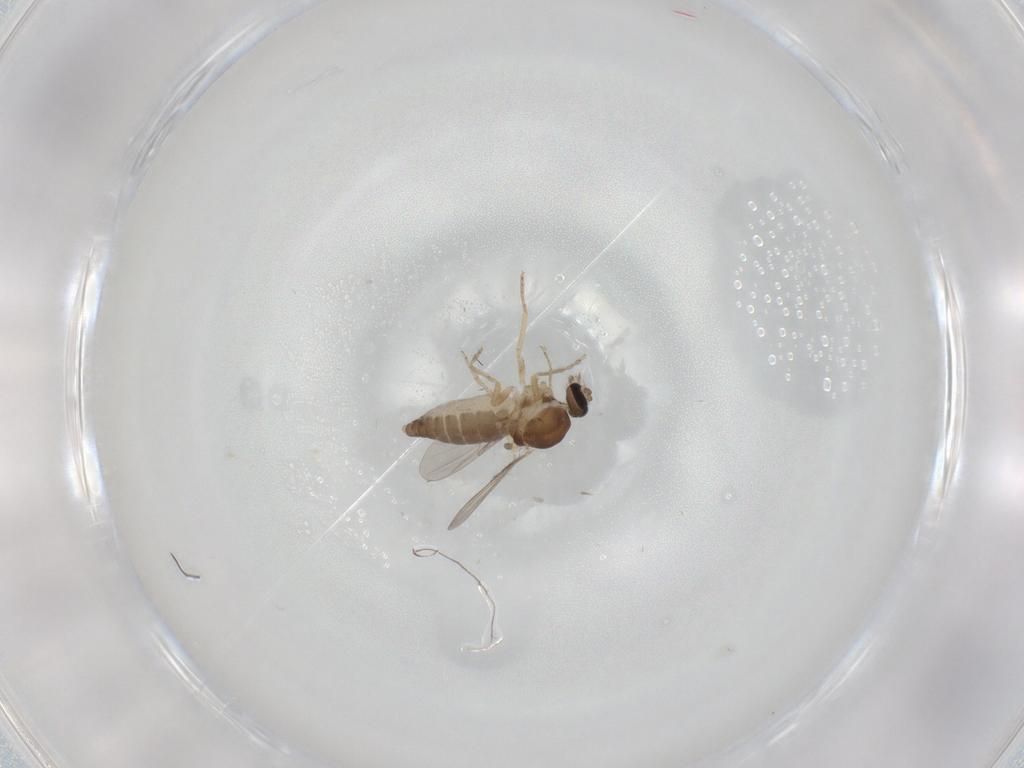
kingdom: Animalia
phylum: Arthropoda
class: Insecta
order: Diptera
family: Ceratopogonidae
